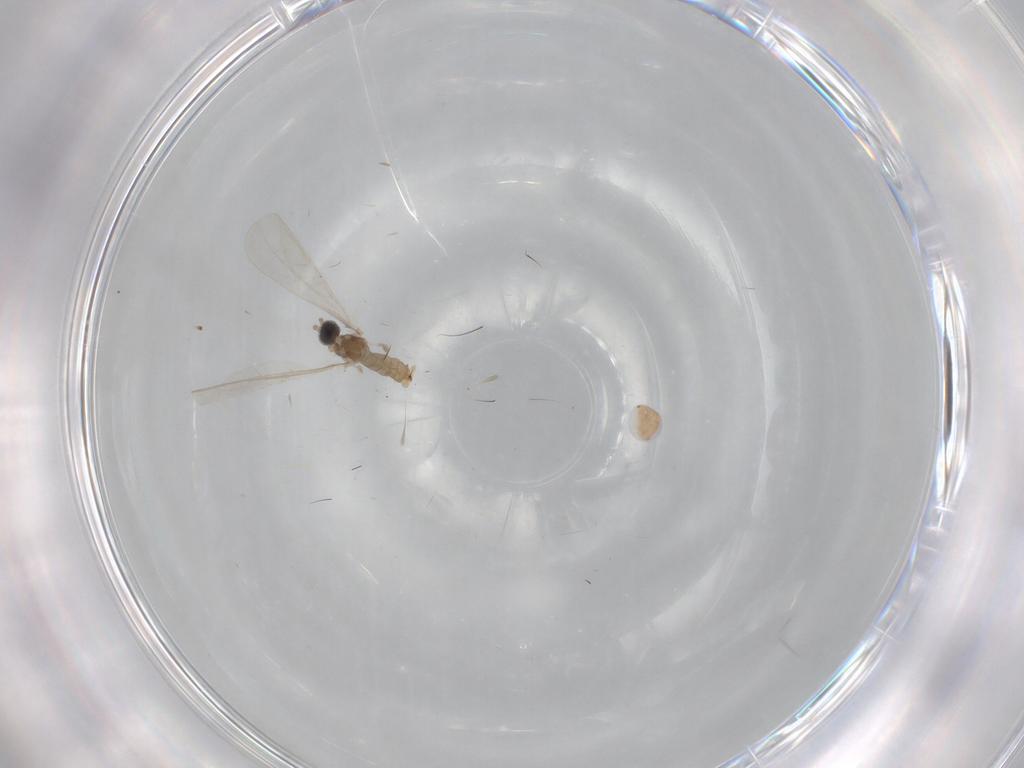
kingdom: Animalia
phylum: Arthropoda
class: Insecta
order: Diptera
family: Cecidomyiidae
